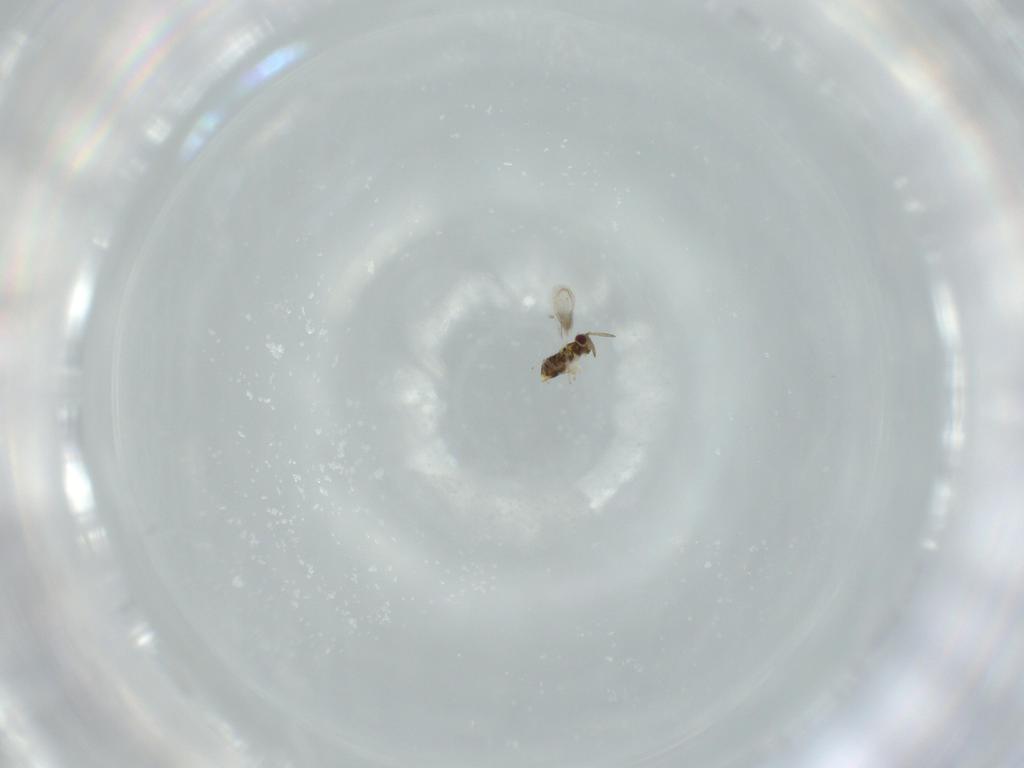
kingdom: Animalia
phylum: Arthropoda
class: Insecta
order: Hymenoptera
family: Aphelinidae
